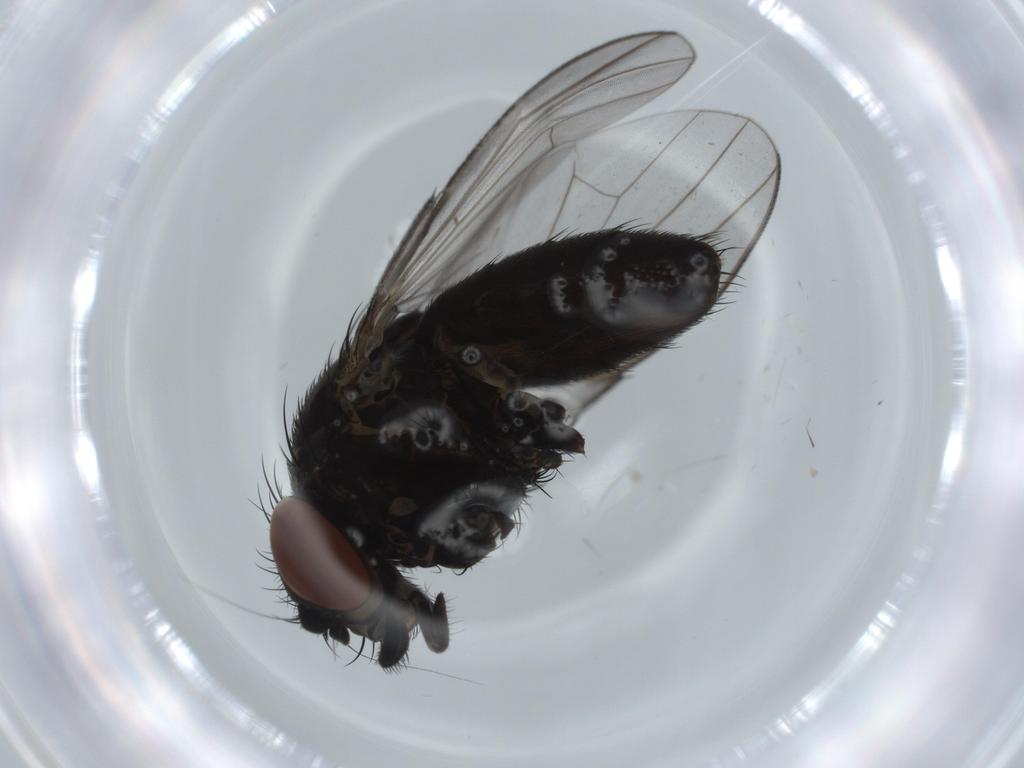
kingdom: Animalia
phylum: Arthropoda
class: Insecta
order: Diptera
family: Milichiidae
